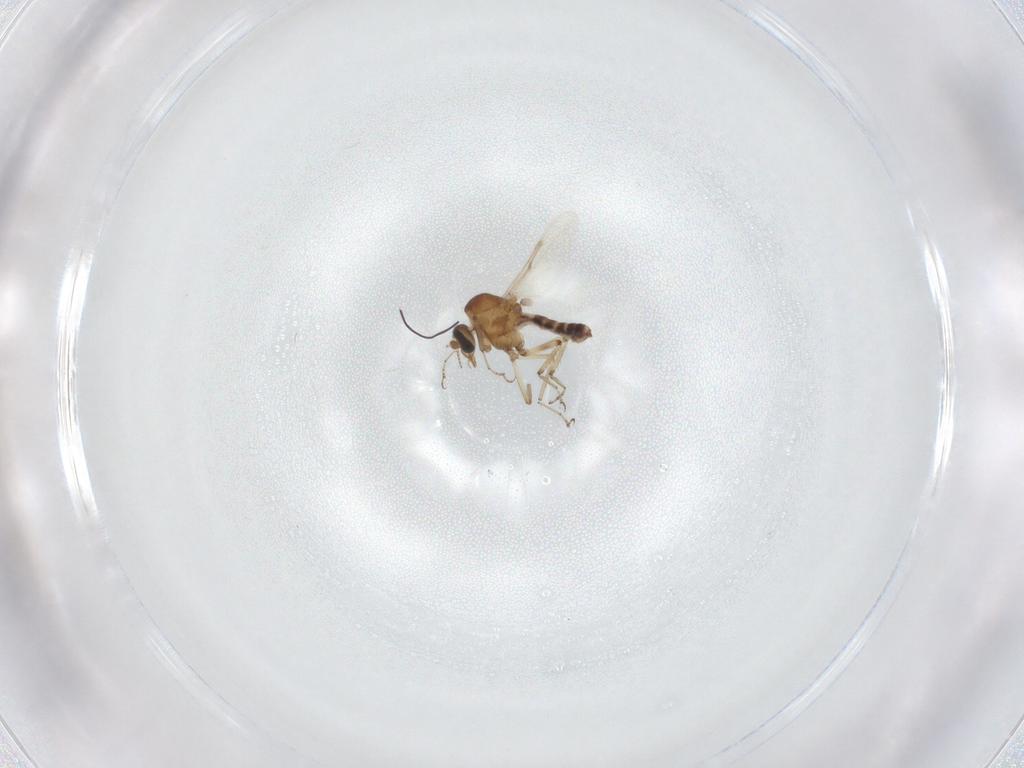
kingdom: Animalia
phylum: Arthropoda
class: Insecta
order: Diptera
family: Ceratopogonidae
